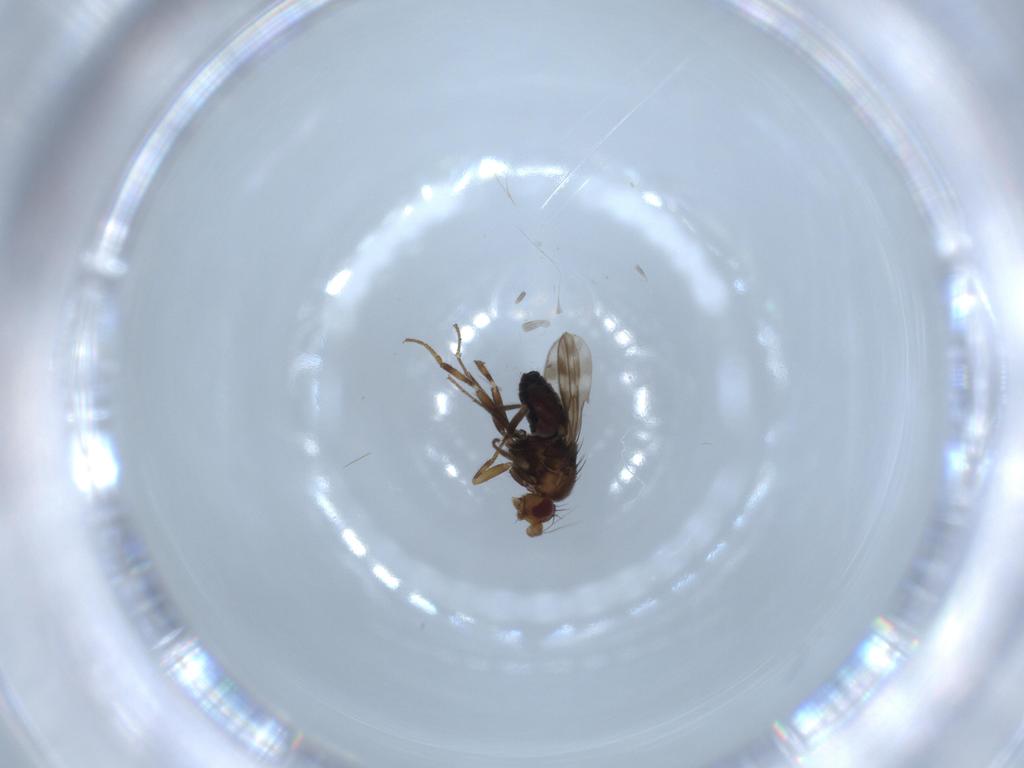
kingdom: Animalia
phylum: Arthropoda
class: Insecta
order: Diptera
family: Sphaeroceridae
